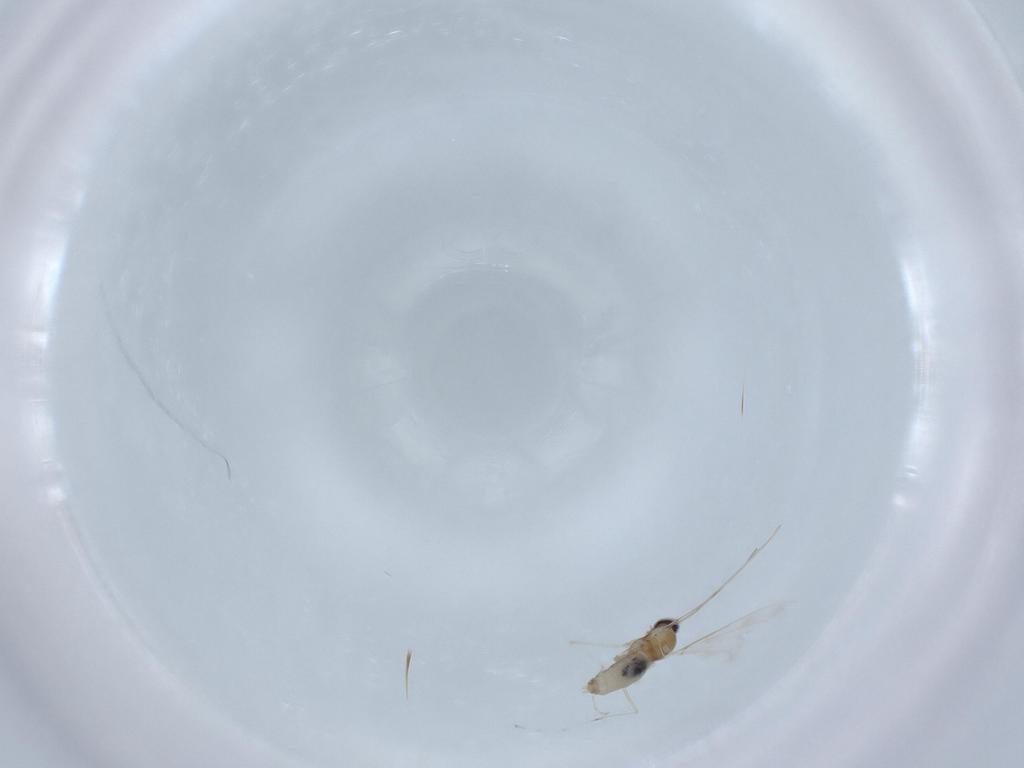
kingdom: Animalia
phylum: Arthropoda
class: Insecta
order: Diptera
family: Cecidomyiidae
